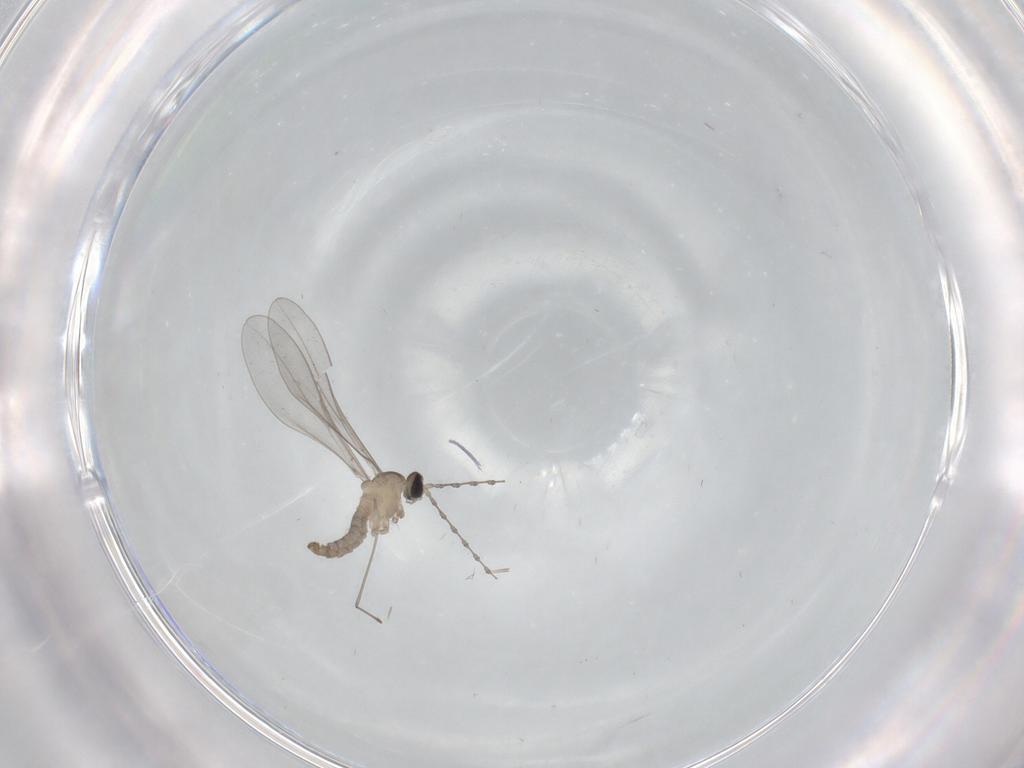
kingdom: Animalia
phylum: Arthropoda
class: Insecta
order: Diptera
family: Cecidomyiidae
